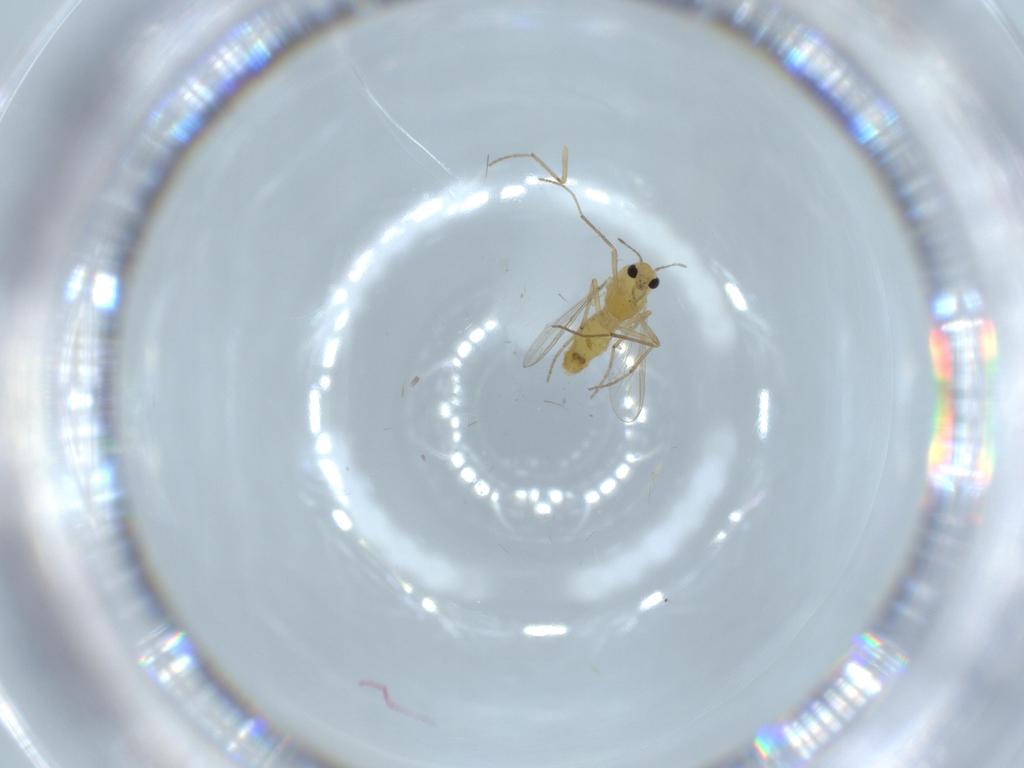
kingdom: Animalia
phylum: Arthropoda
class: Insecta
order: Diptera
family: Chironomidae
